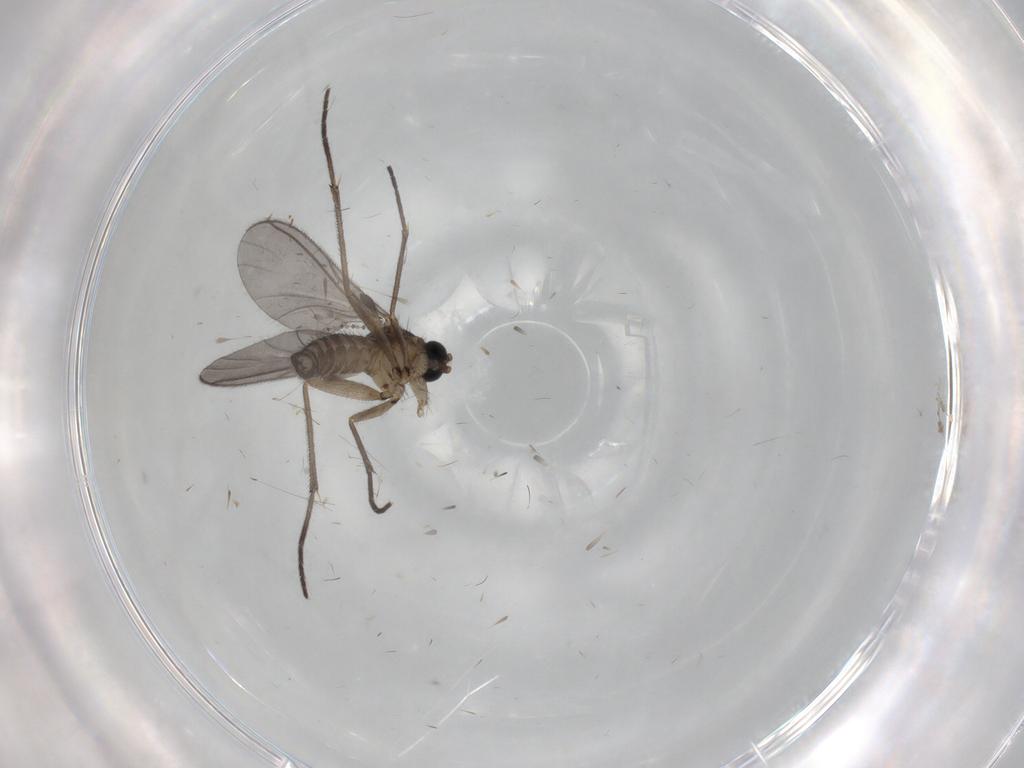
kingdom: Animalia
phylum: Arthropoda
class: Insecta
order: Diptera
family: Sciaridae
